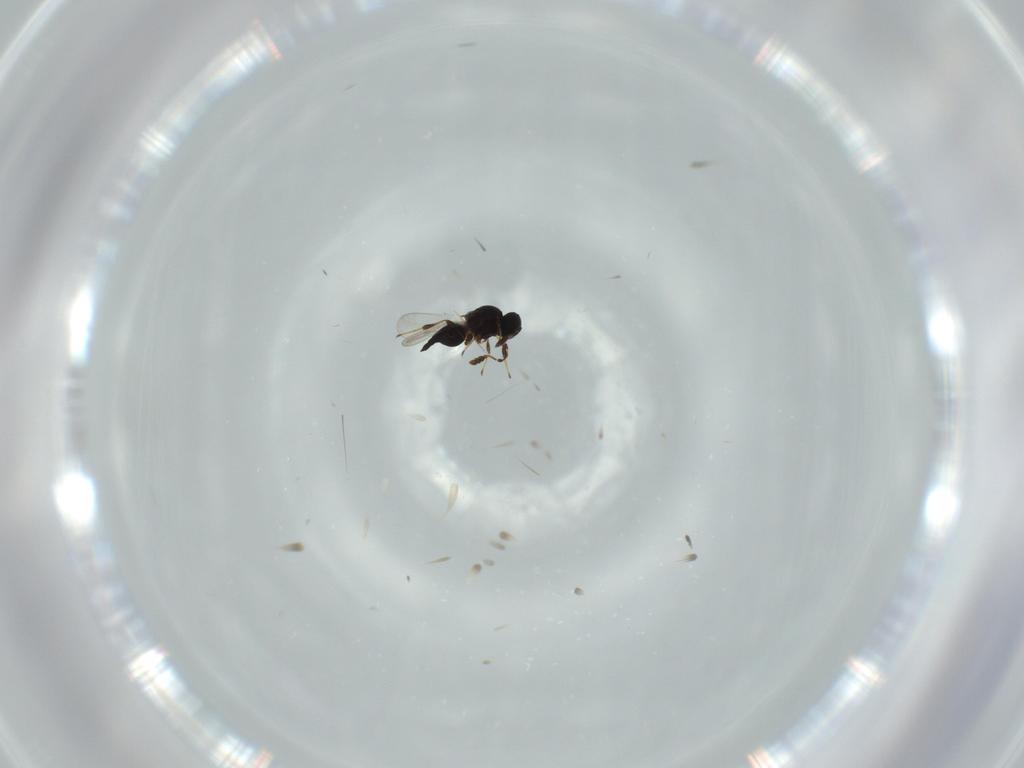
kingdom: Animalia
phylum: Arthropoda
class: Insecta
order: Hymenoptera
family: Platygastridae
